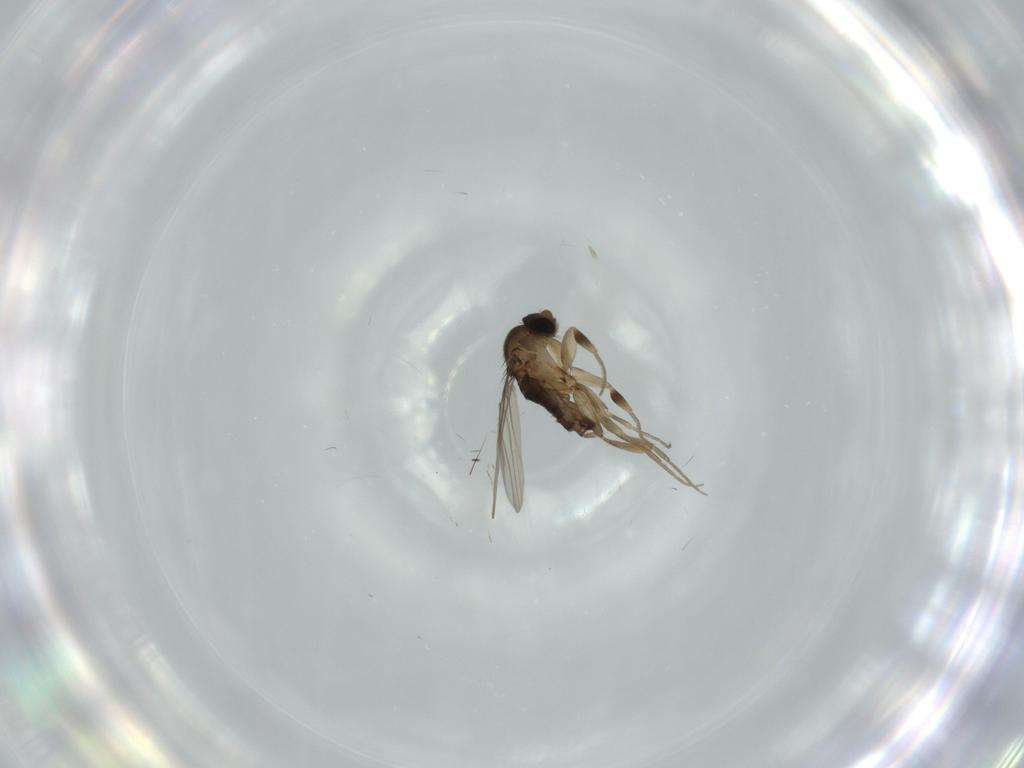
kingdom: Animalia
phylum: Arthropoda
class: Insecta
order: Diptera
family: Phoridae
